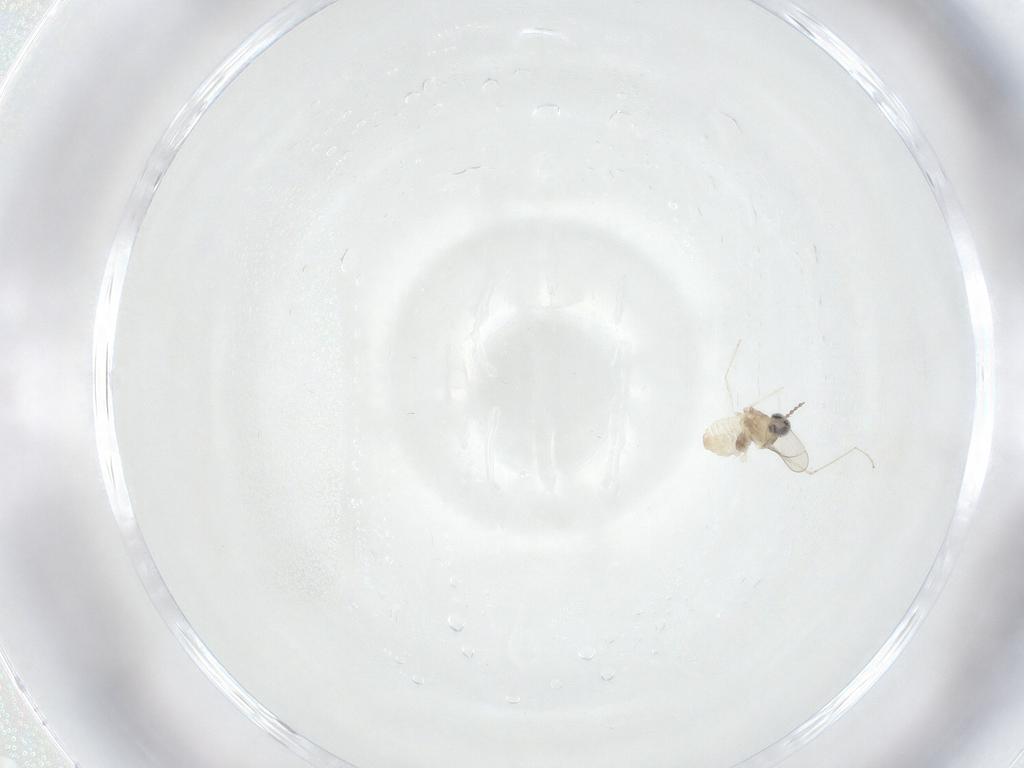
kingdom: Animalia
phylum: Arthropoda
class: Insecta
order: Diptera
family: Cecidomyiidae
